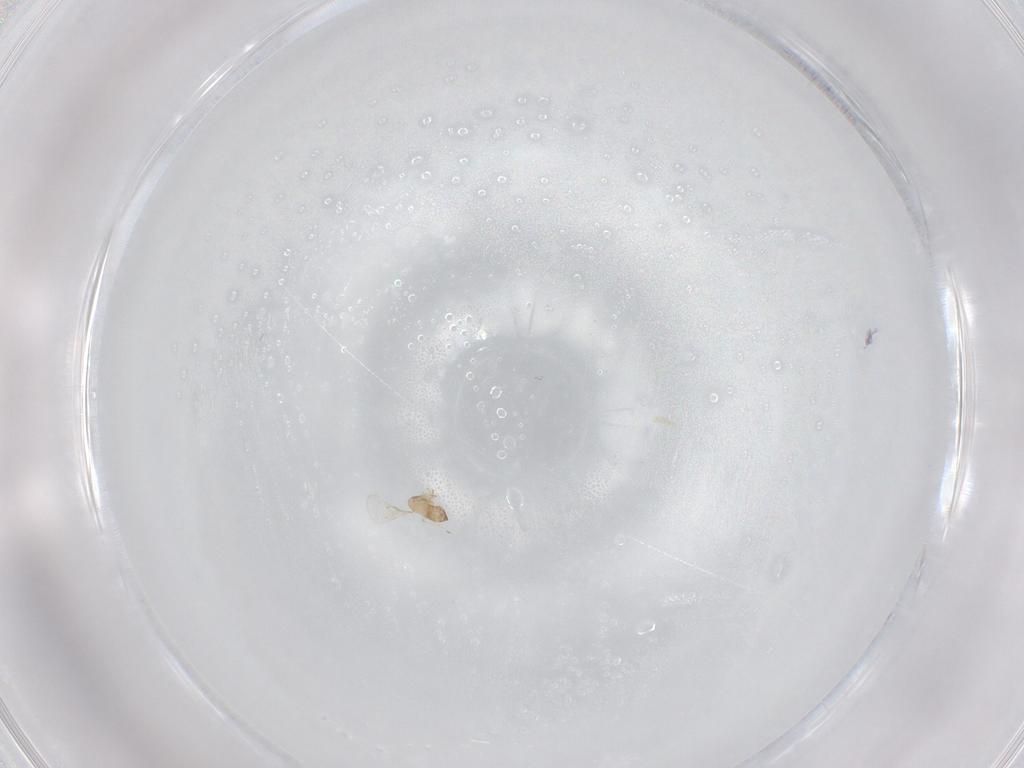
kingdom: Animalia
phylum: Arthropoda
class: Insecta
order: Hymenoptera
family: Trichogrammatidae
